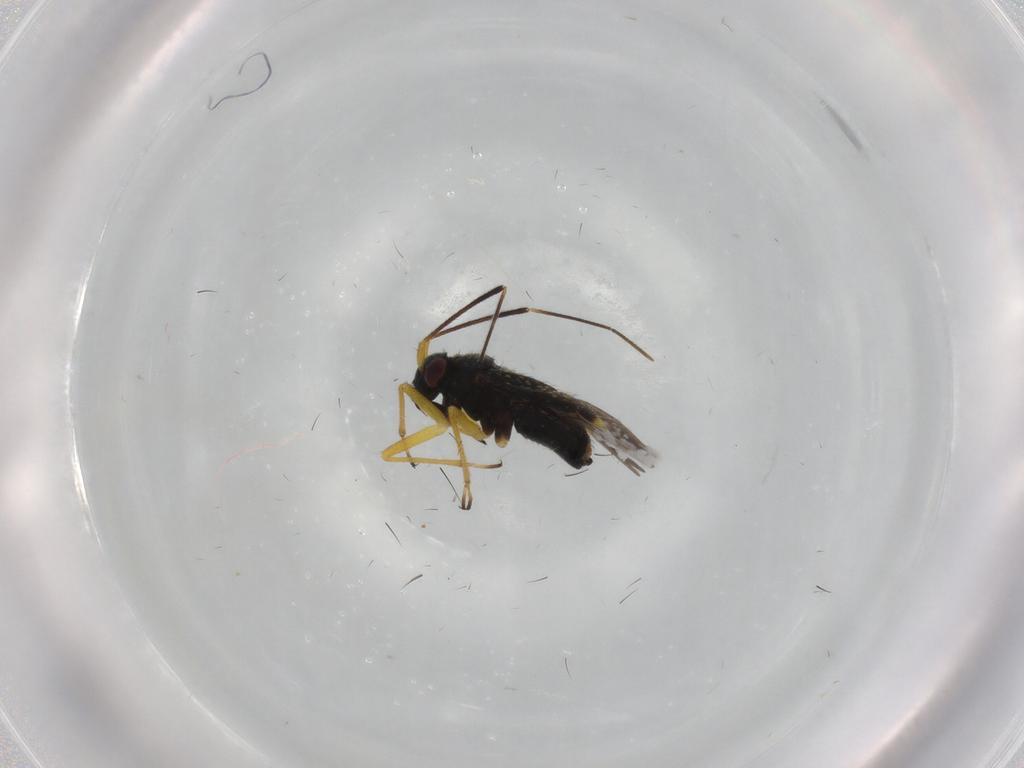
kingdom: Animalia
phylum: Arthropoda
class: Insecta
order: Hemiptera
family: Miridae
